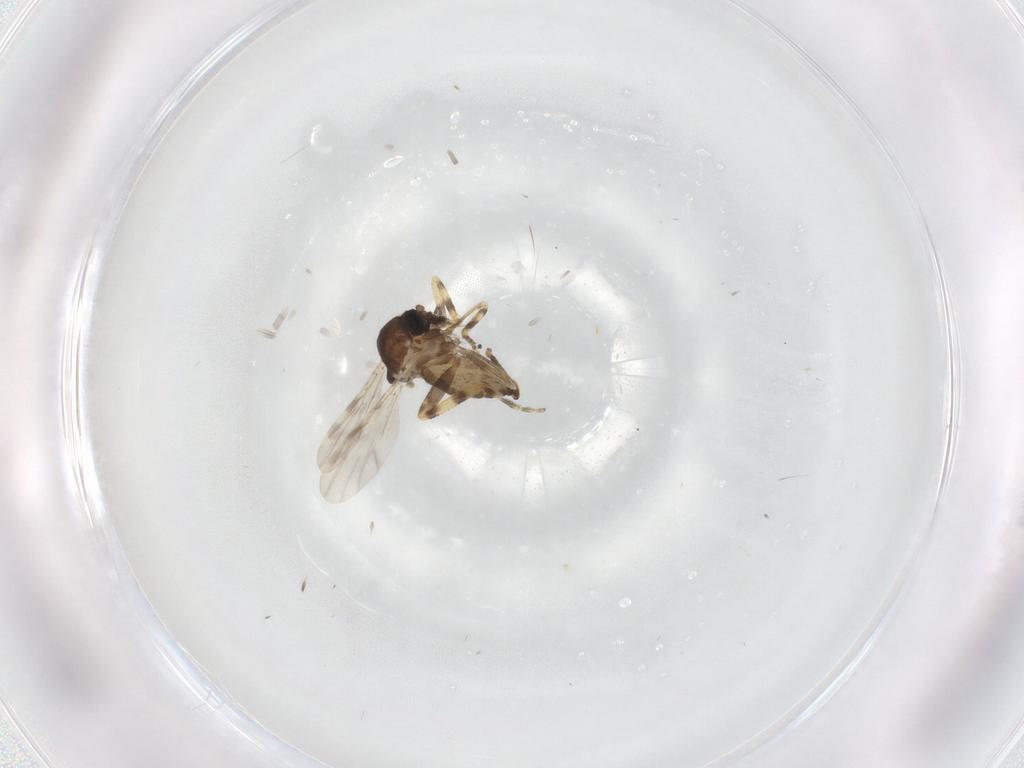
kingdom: Animalia
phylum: Arthropoda
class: Insecta
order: Diptera
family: Ceratopogonidae
